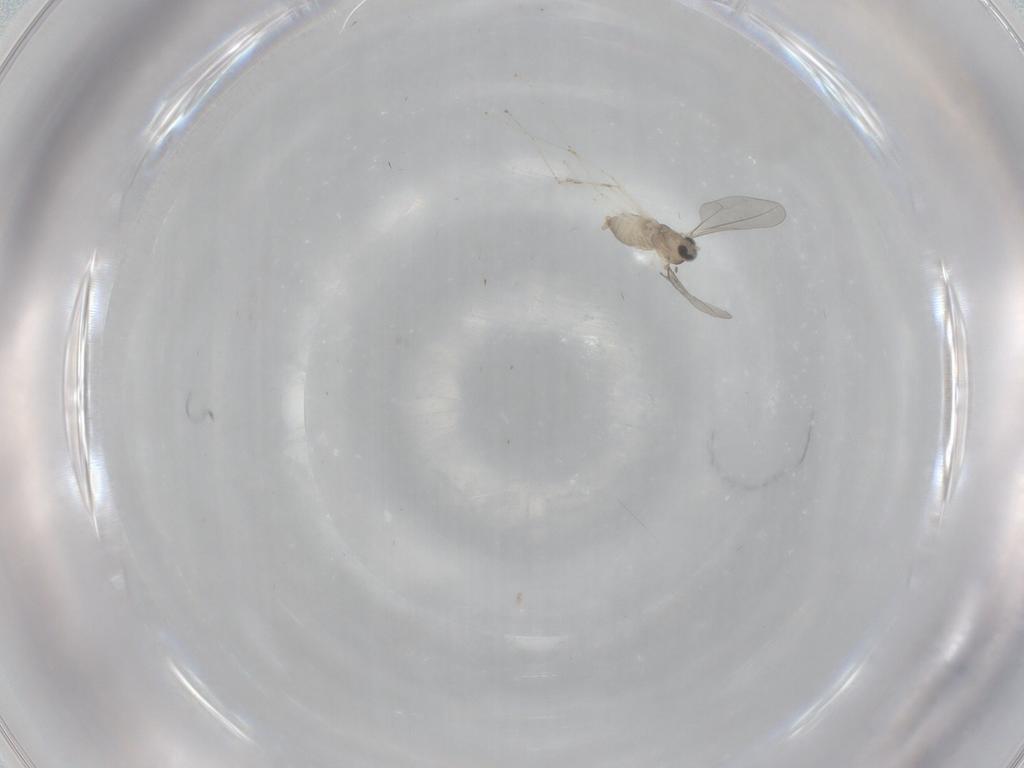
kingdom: Animalia
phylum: Arthropoda
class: Insecta
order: Diptera
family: Cecidomyiidae
